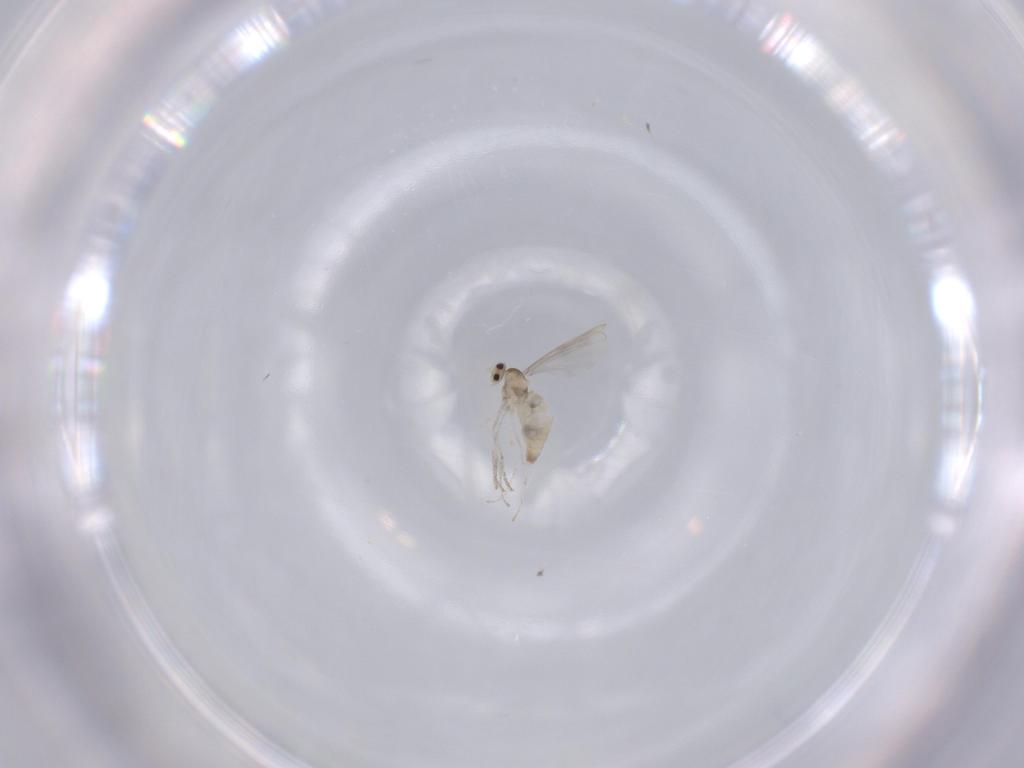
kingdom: Animalia
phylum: Arthropoda
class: Insecta
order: Diptera
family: Cecidomyiidae
